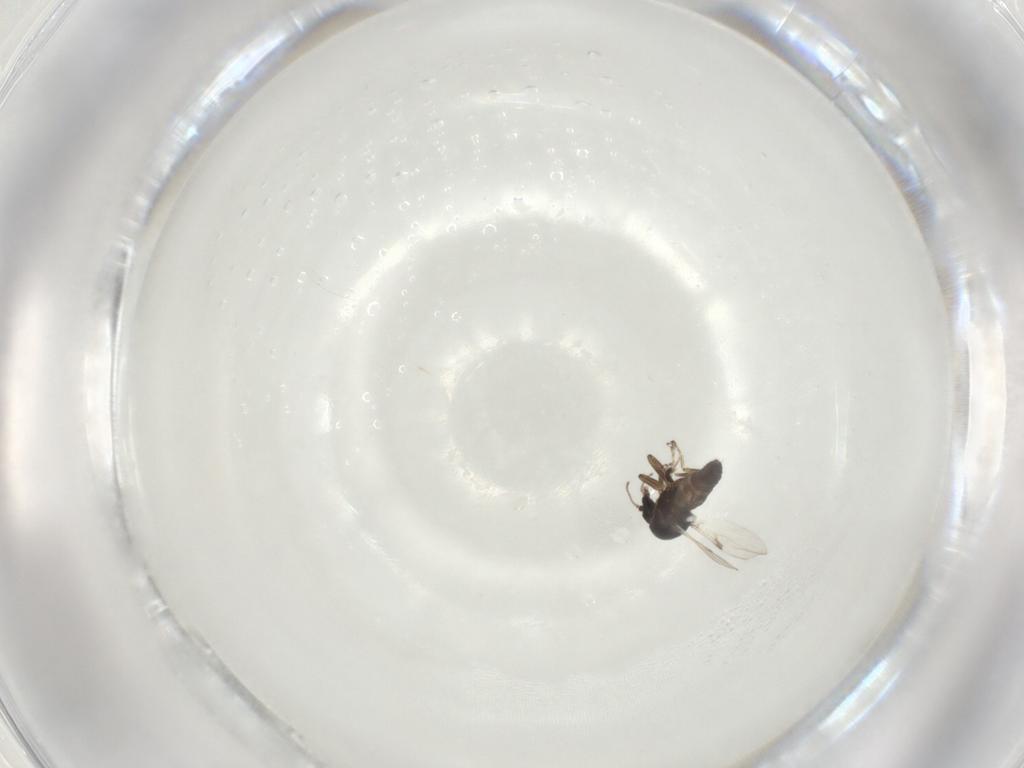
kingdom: Animalia
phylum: Arthropoda
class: Insecta
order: Diptera
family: Ceratopogonidae
